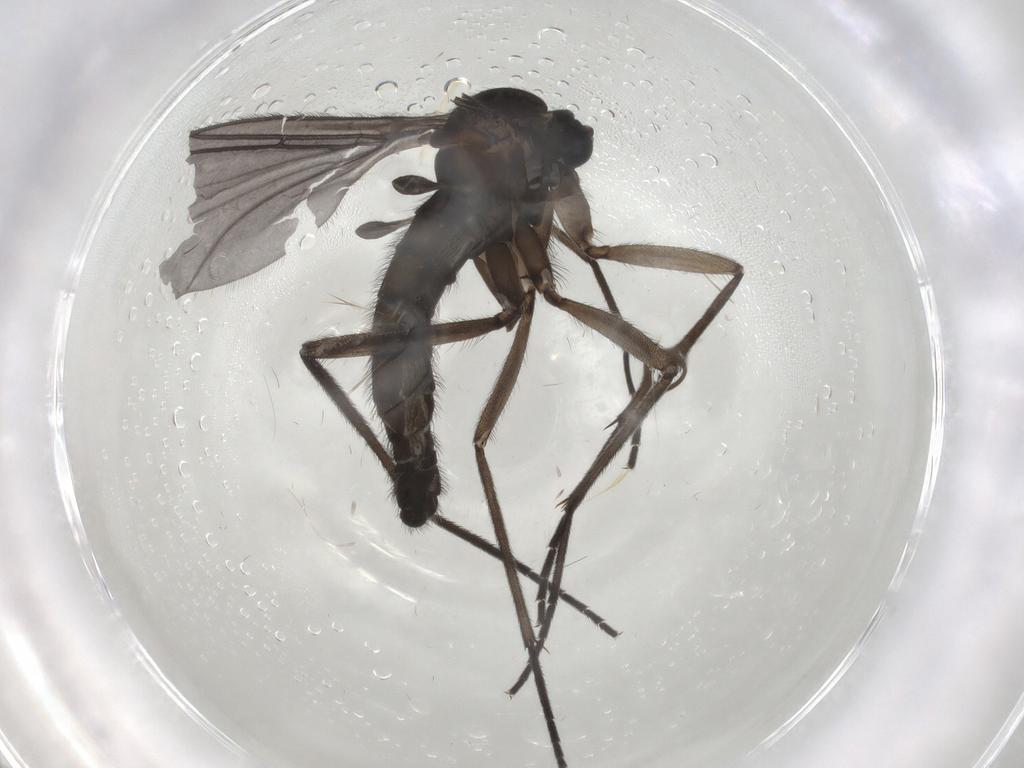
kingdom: Animalia
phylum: Arthropoda
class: Insecta
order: Diptera
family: Sciaridae
